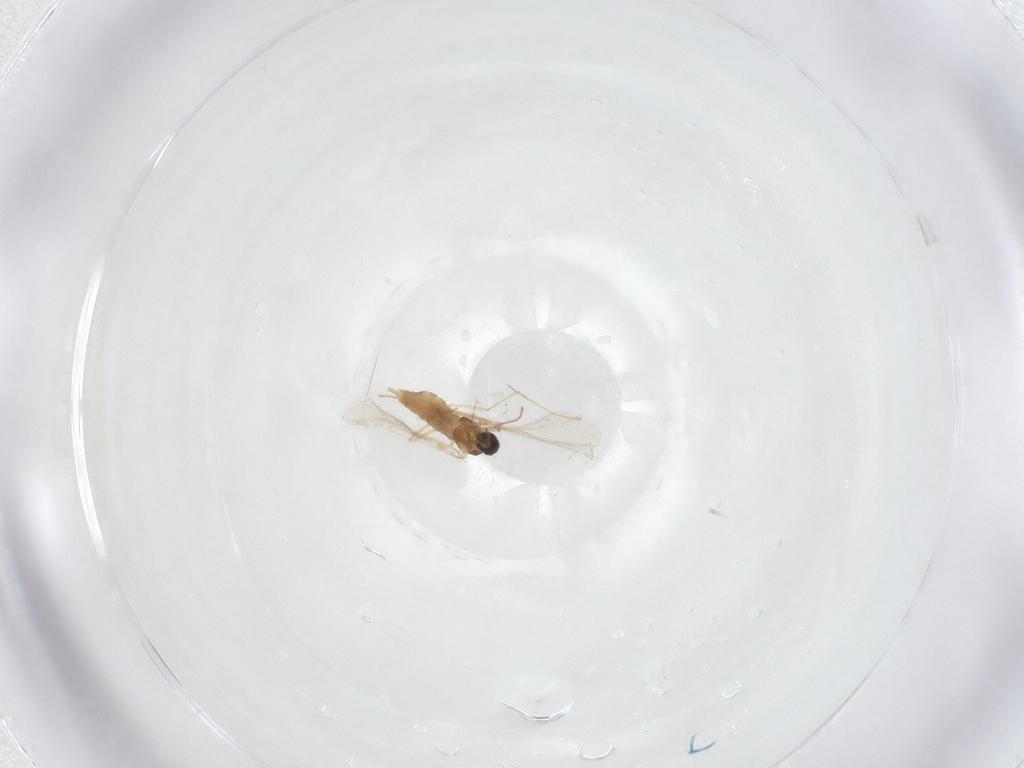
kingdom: Animalia
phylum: Arthropoda
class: Insecta
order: Diptera
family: Cecidomyiidae
